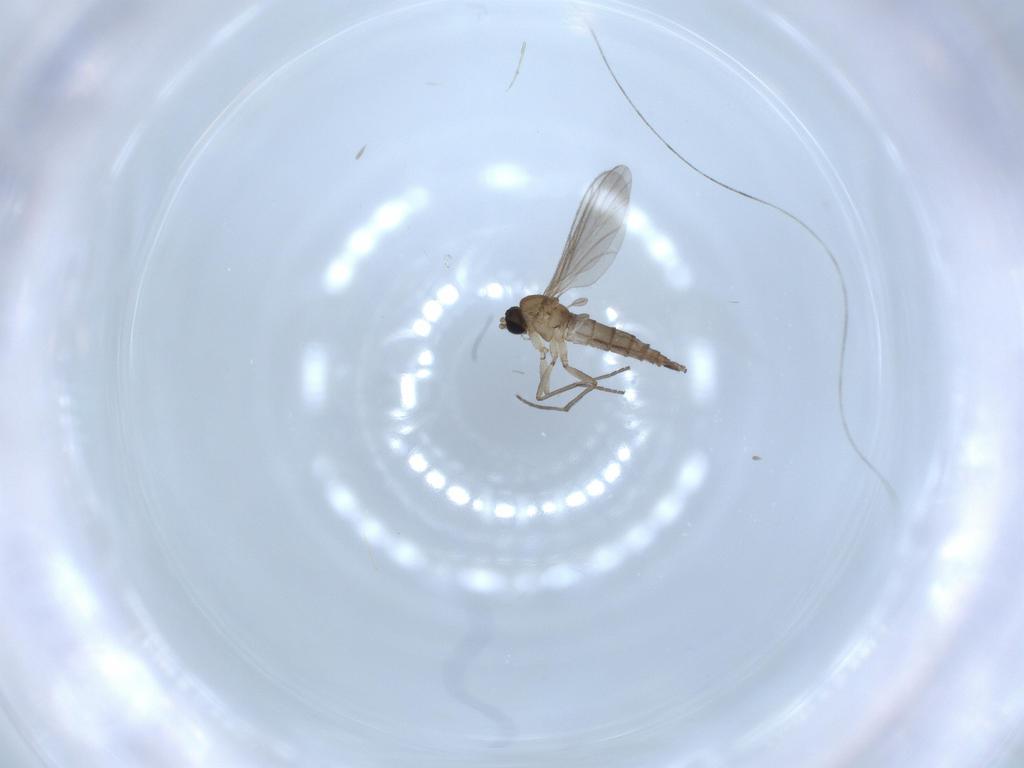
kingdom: Animalia
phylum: Arthropoda
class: Insecta
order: Diptera
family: Sciaridae
